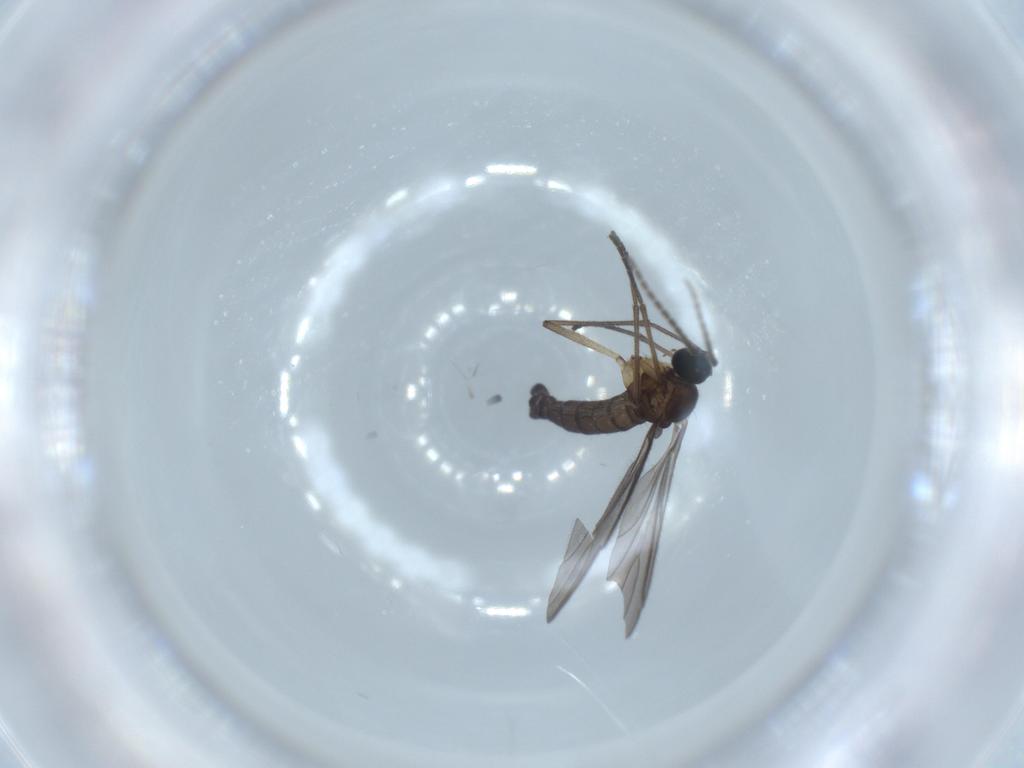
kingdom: Animalia
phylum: Arthropoda
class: Insecta
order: Diptera
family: Sciaridae
